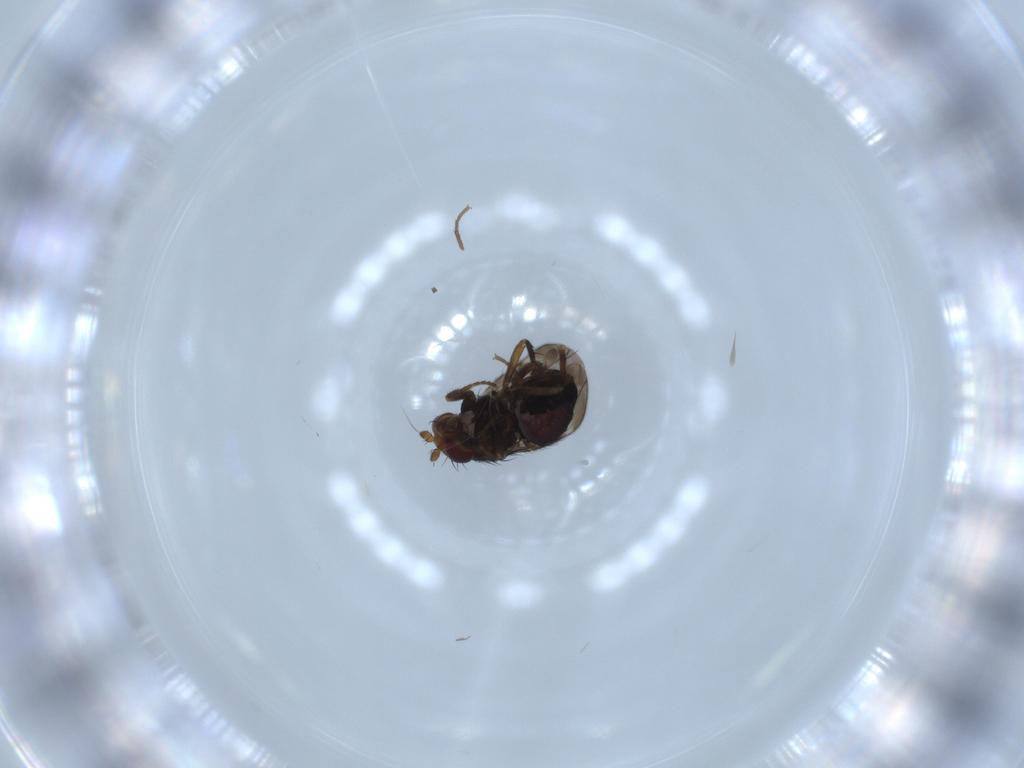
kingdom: Animalia
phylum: Arthropoda
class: Insecta
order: Diptera
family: Sphaeroceridae
